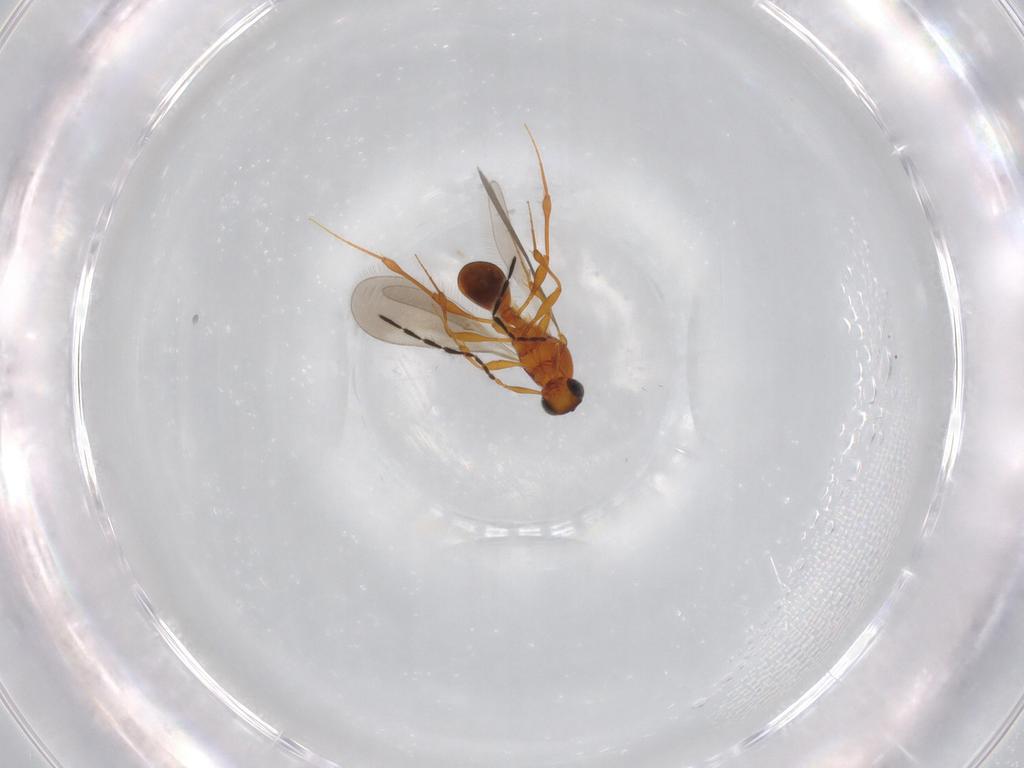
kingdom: Animalia
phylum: Arthropoda
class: Insecta
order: Hymenoptera
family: Platygastridae
